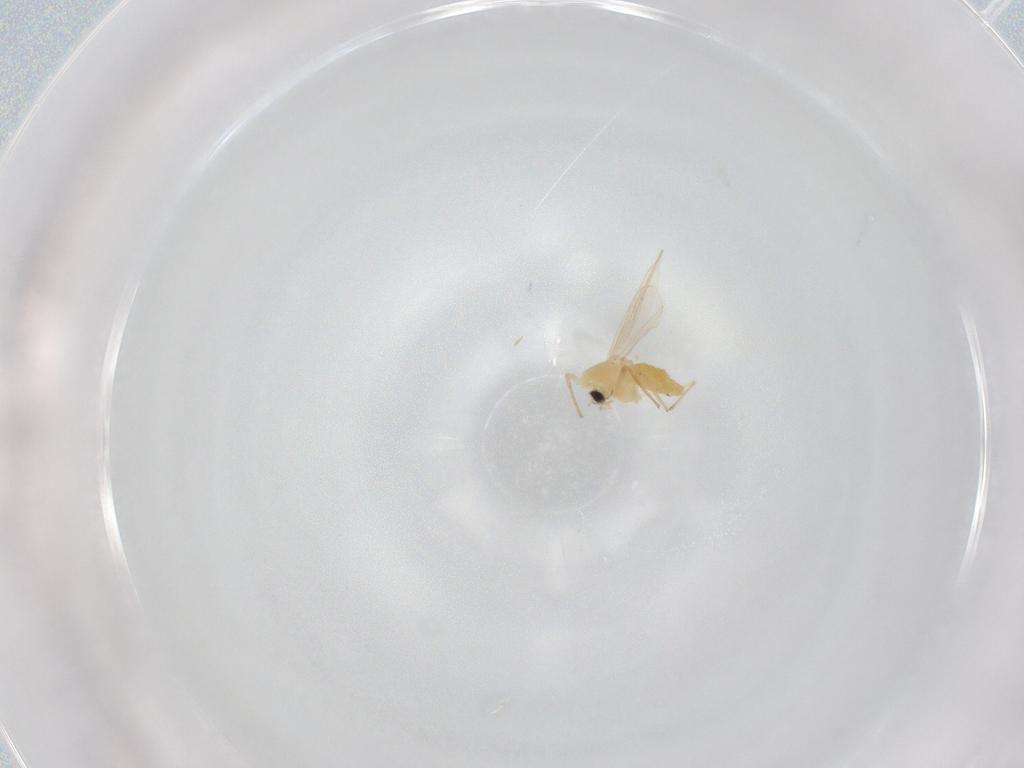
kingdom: Animalia
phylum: Arthropoda
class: Insecta
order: Diptera
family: Chironomidae
